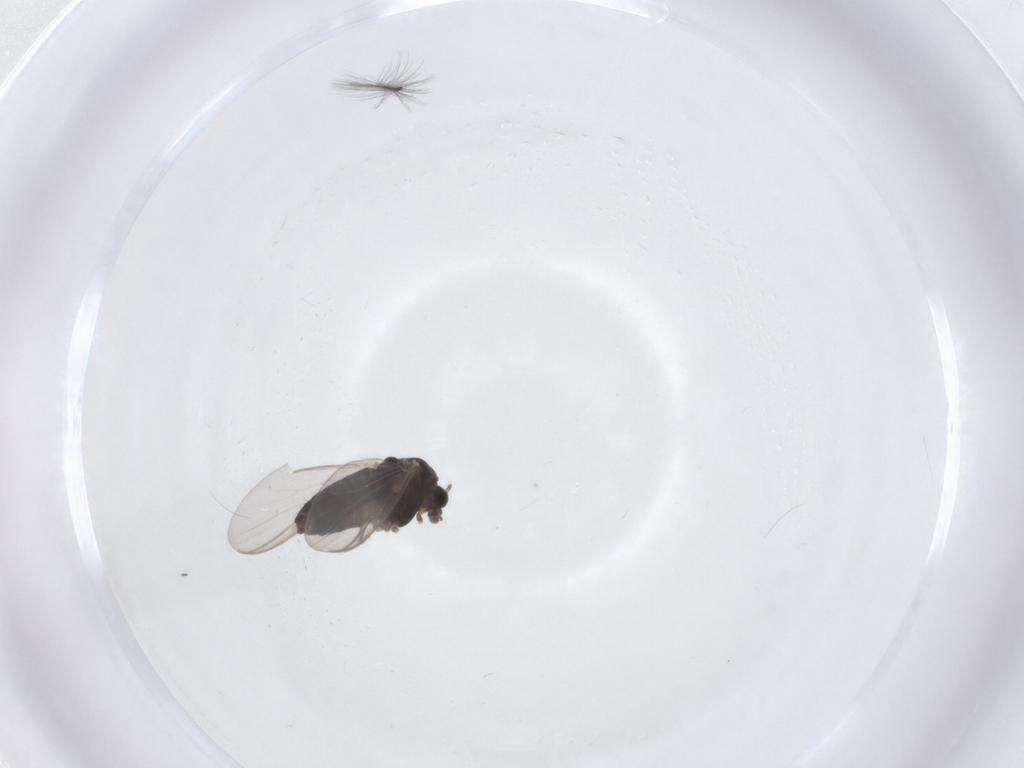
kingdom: Animalia
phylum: Arthropoda
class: Insecta
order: Diptera
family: Chironomidae
